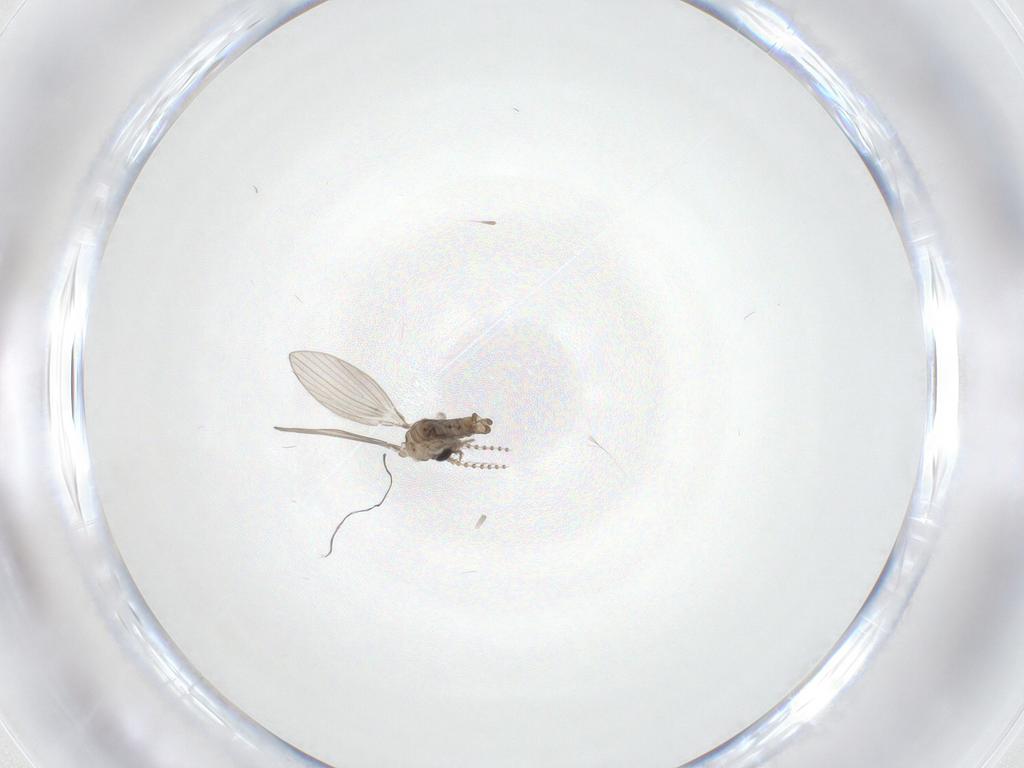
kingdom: Animalia
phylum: Arthropoda
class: Insecta
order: Diptera
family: Psychodidae
